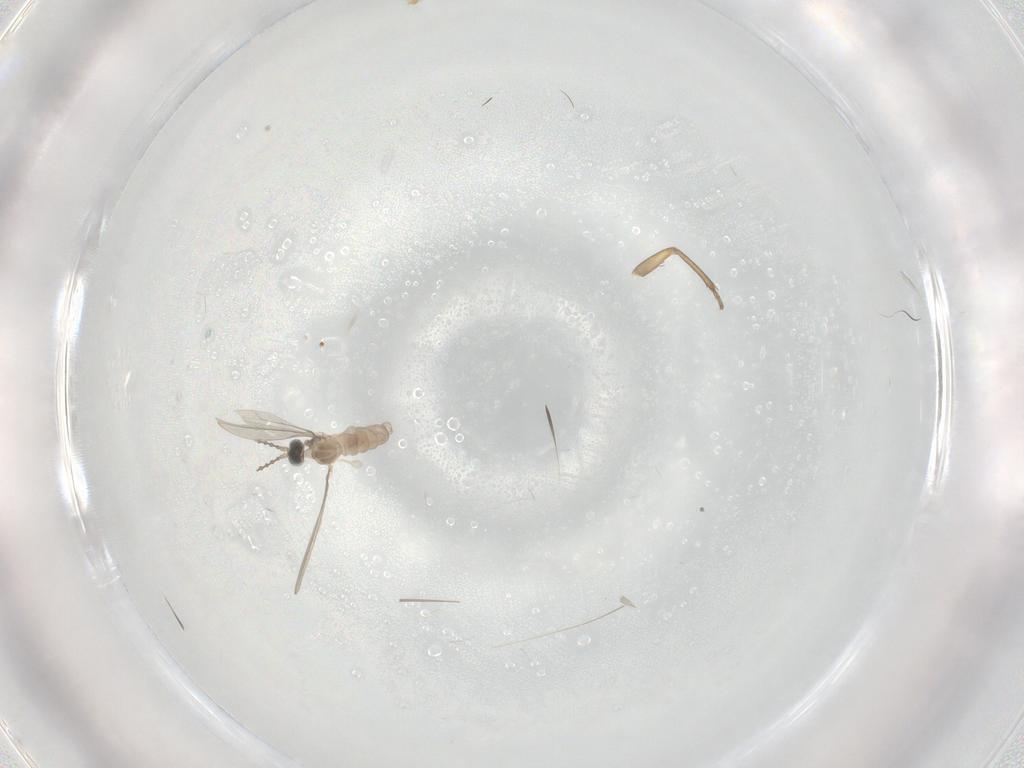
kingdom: Animalia
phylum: Arthropoda
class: Insecta
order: Diptera
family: Cecidomyiidae
